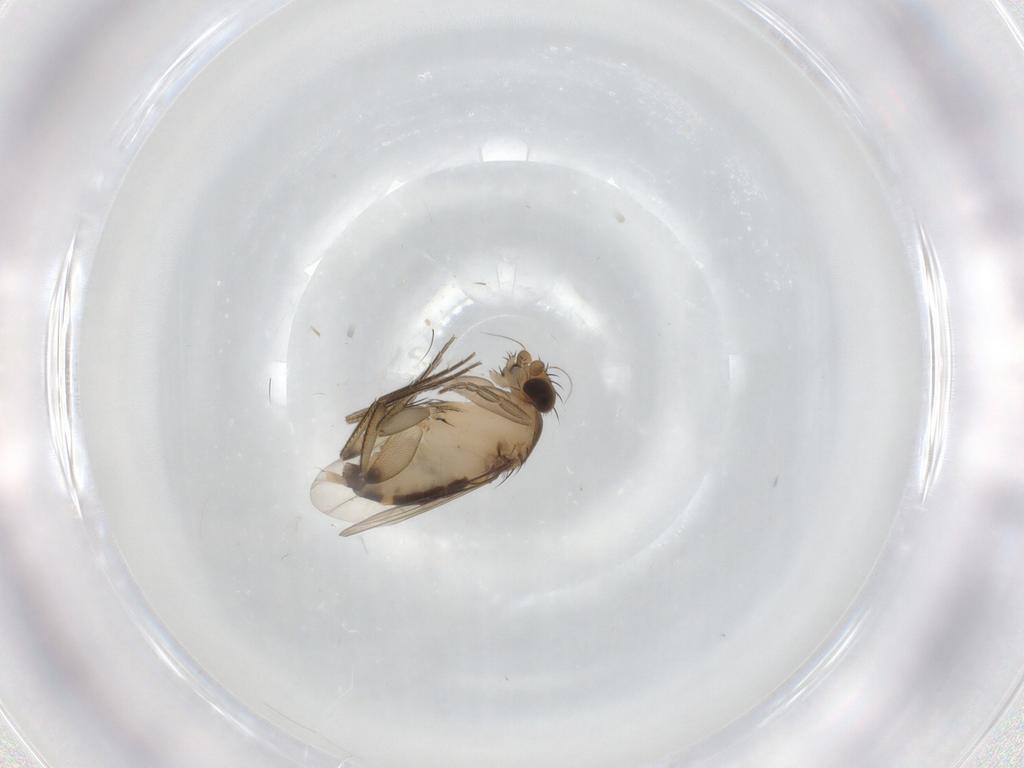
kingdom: Animalia
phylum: Arthropoda
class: Insecta
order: Diptera
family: Chironomidae
